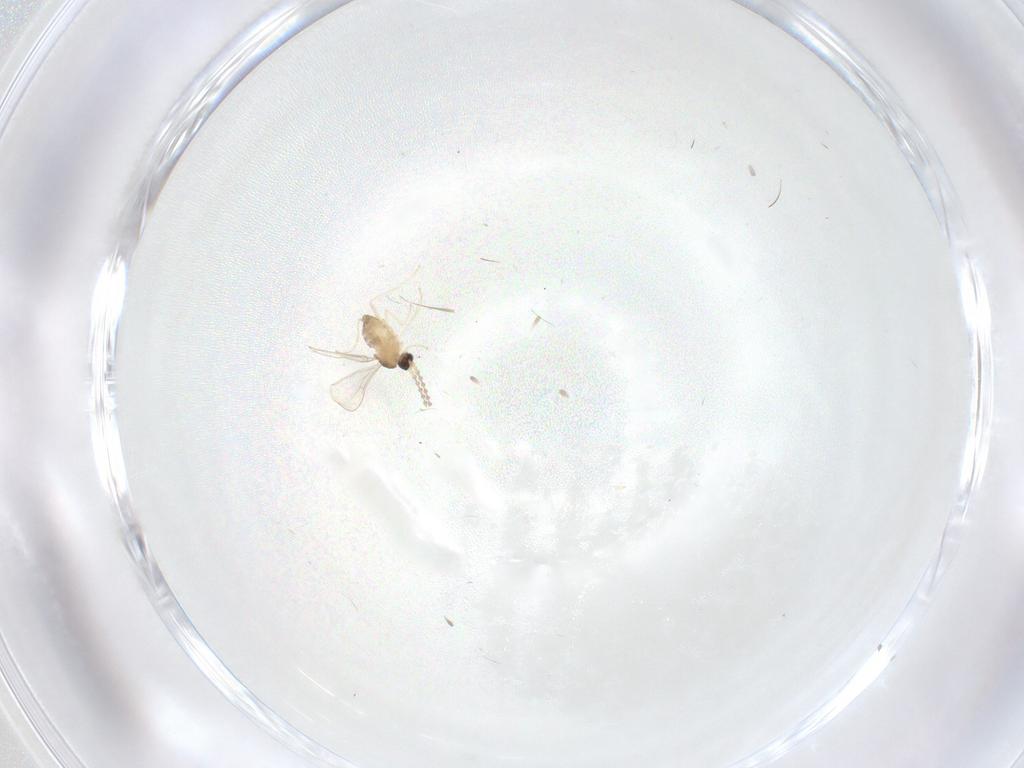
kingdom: Animalia
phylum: Arthropoda
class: Insecta
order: Diptera
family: Cecidomyiidae
